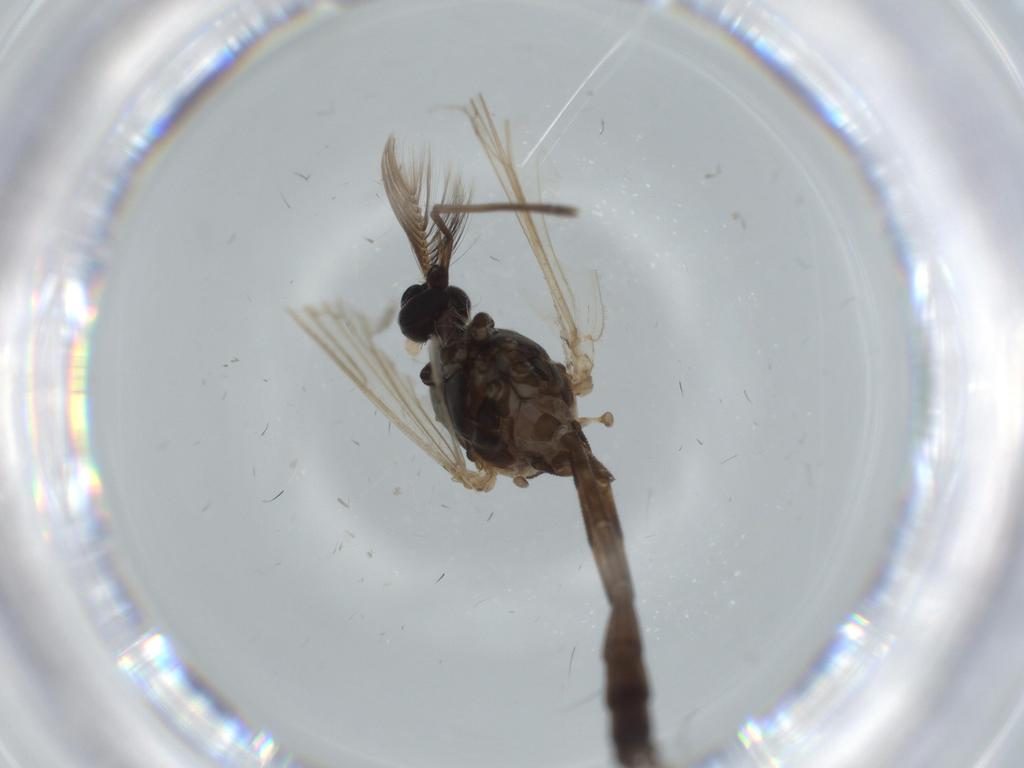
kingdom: Animalia
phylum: Arthropoda
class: Insecta
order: Diptera
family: Culicidae
